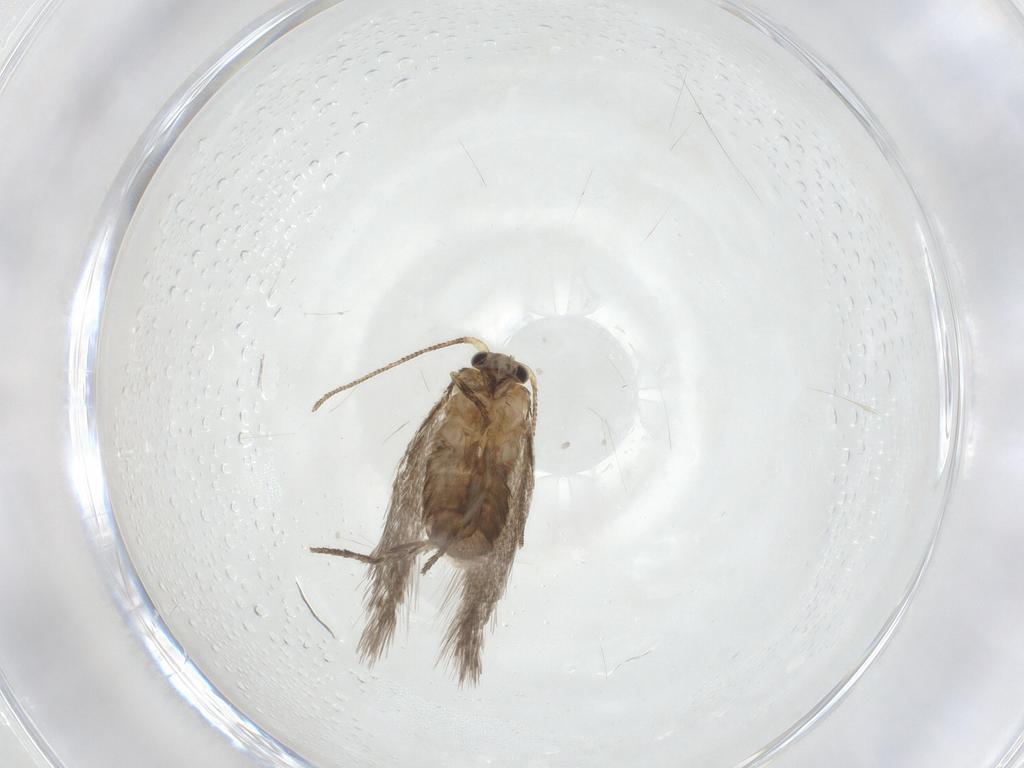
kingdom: Animalia
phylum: Arthropoda
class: Insecta
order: Lepidoptera
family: Nepticulidae
